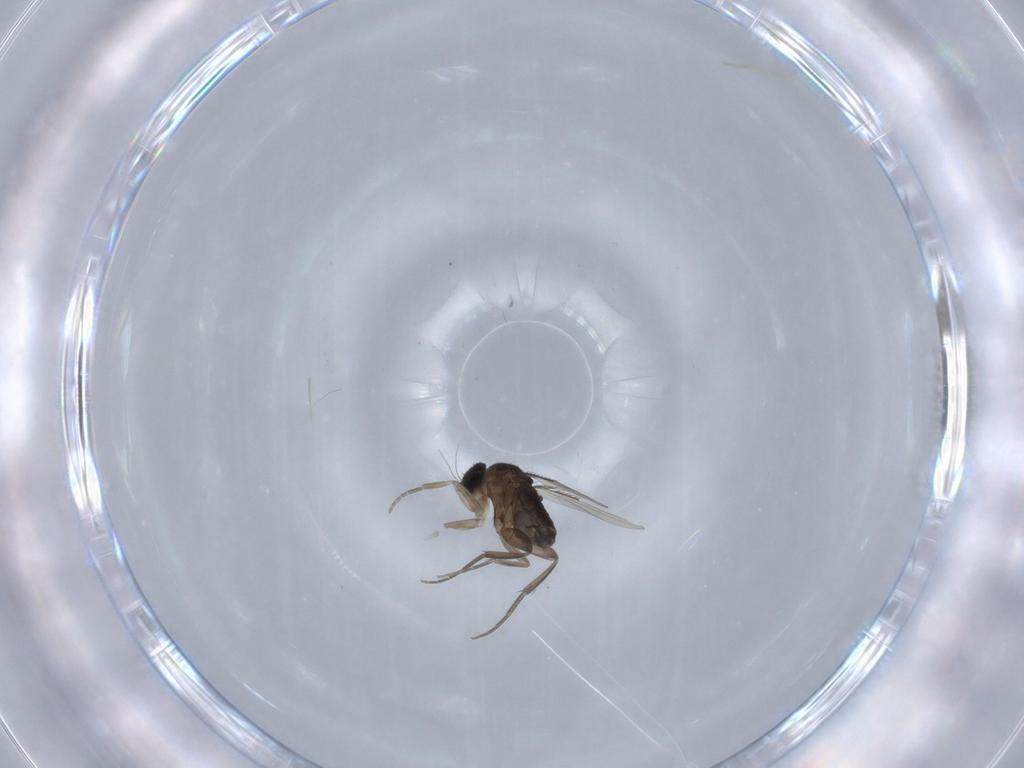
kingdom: Animalia
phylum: Arthropoda
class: Insecta
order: Diptera
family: Phoridae
